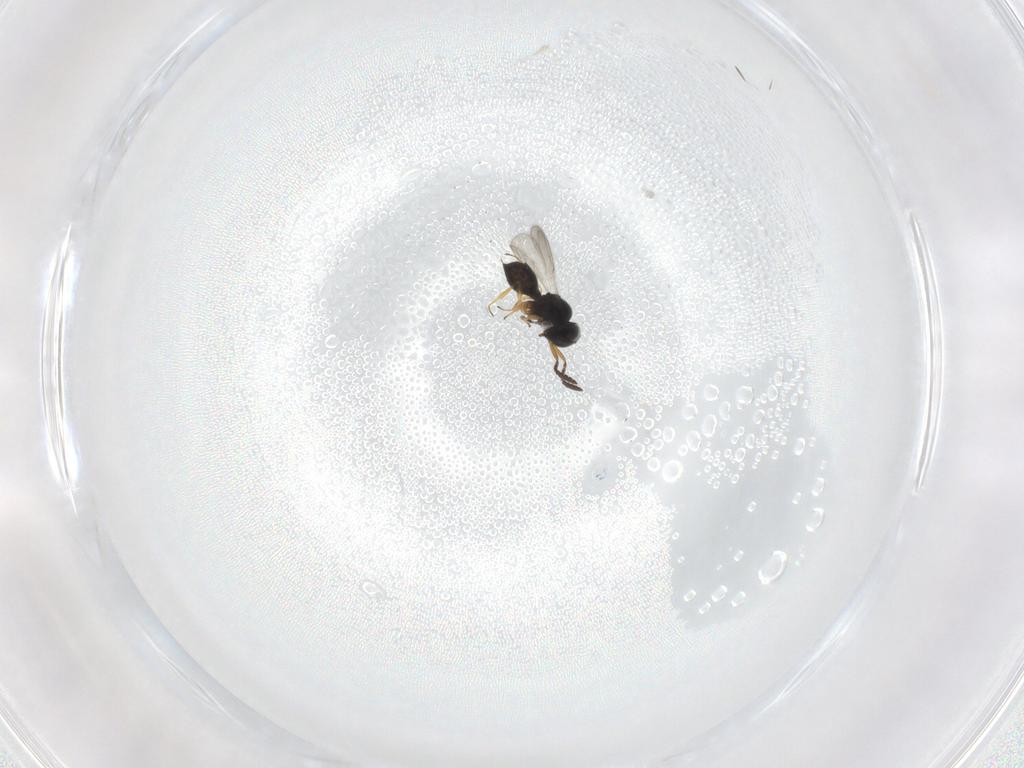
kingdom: Animalia
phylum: Arthropoda
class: Insecta
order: Hymenoptera
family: Scelionidae
